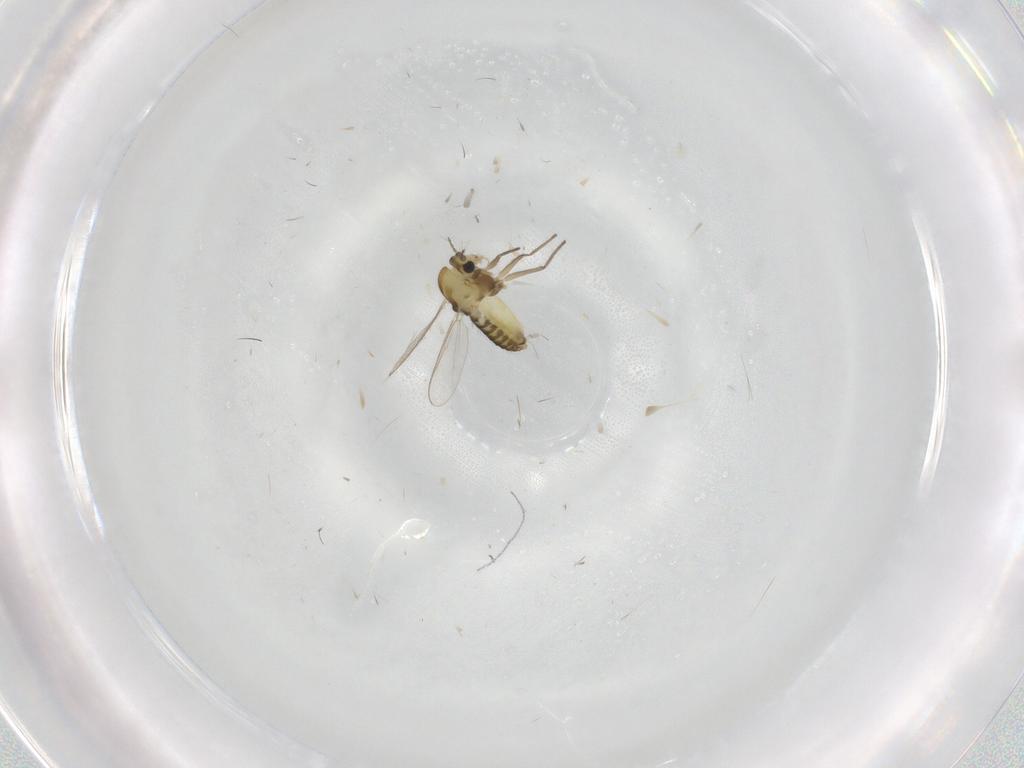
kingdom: Animalia
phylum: Arthropoda
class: Insecta
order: Diptera
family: Chironomidae
